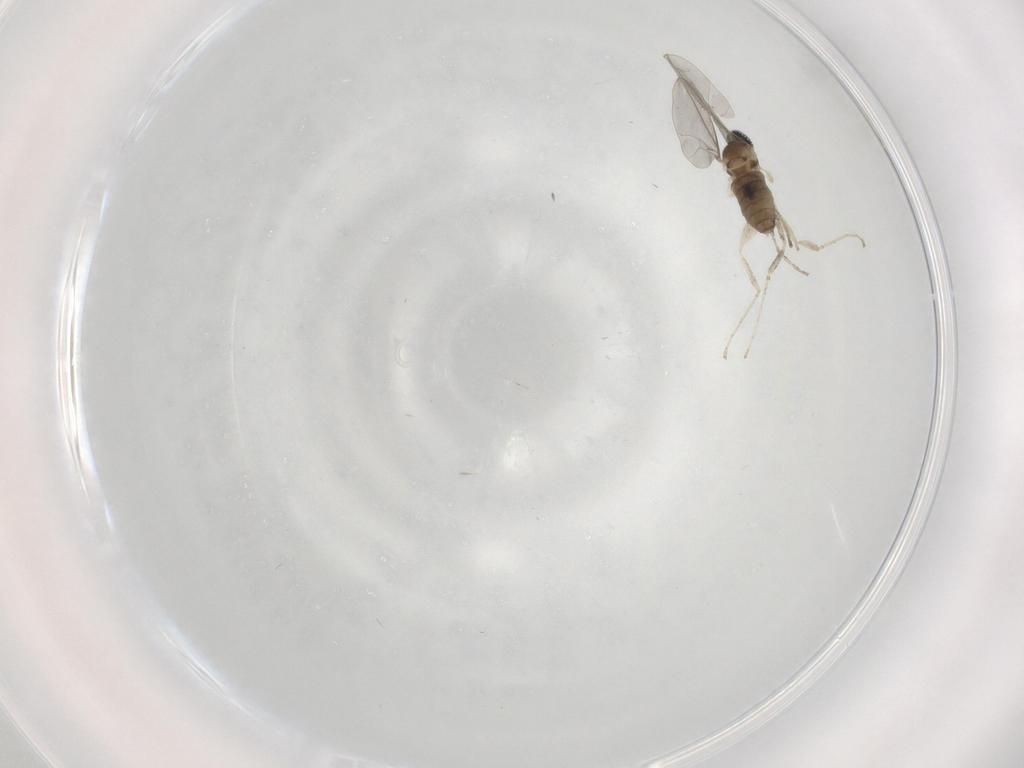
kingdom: Animalia
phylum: Arthropoda
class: Insecta
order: Diptera
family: Cecidomyiidae
